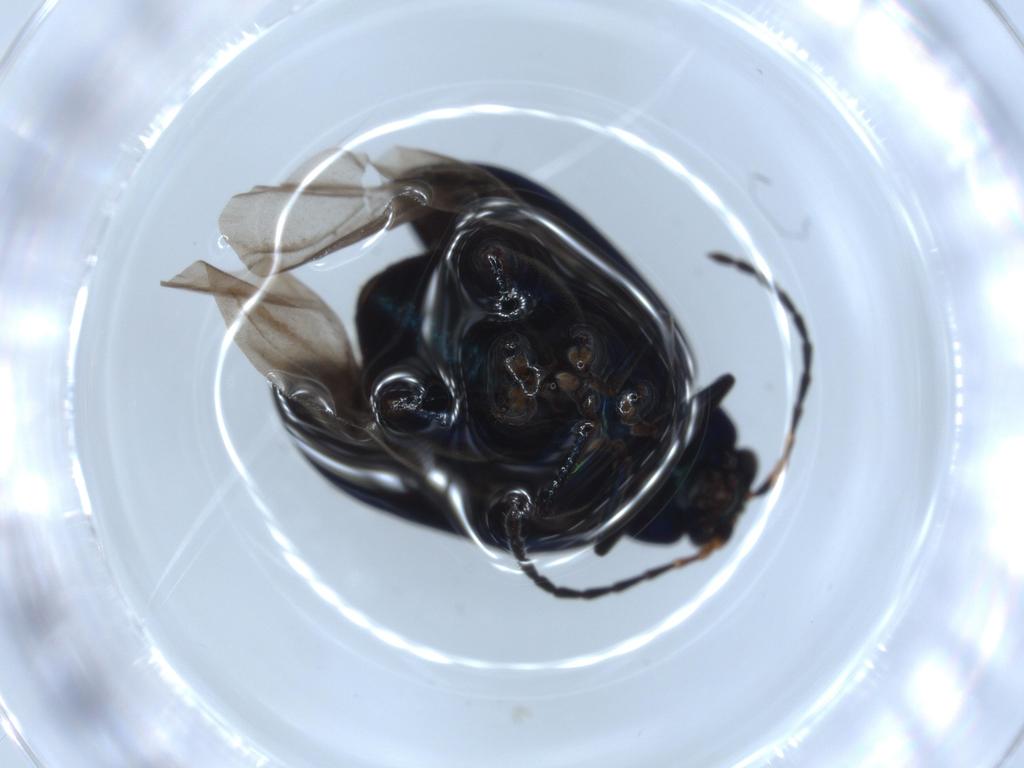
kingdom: Animalia
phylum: Arthropoda
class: Insecta
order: Coleoptera
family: Chrysomelidae
